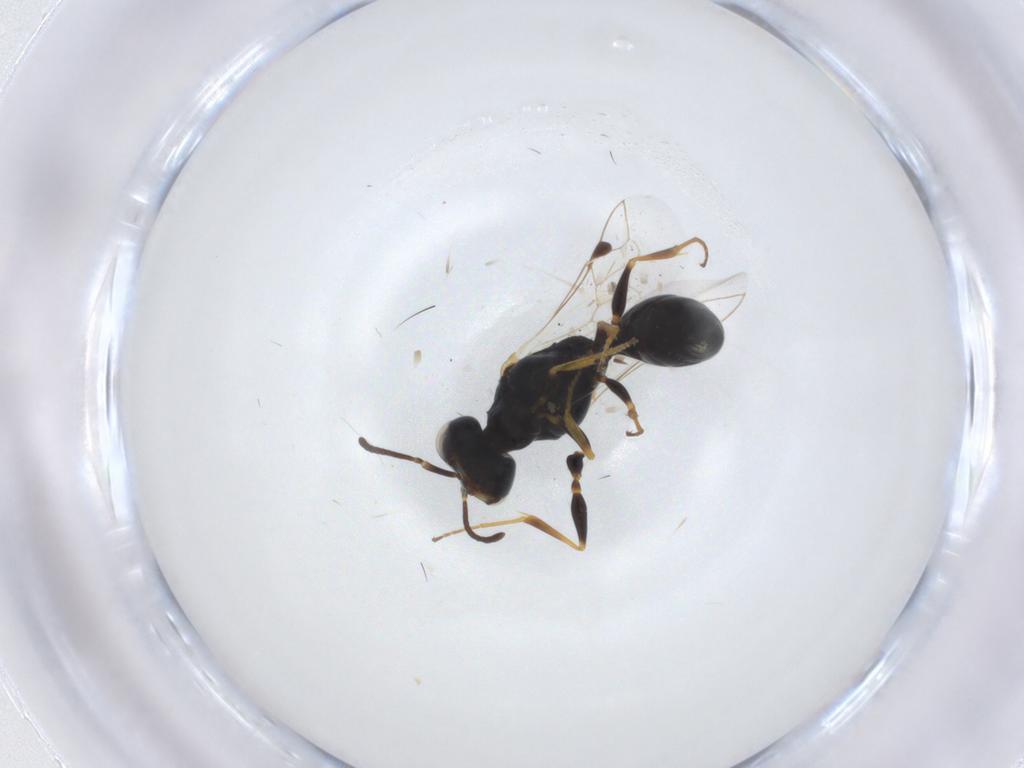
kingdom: Animalia
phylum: Arthropoda
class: Insecta
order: Hymenoptera
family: Crabronidae
